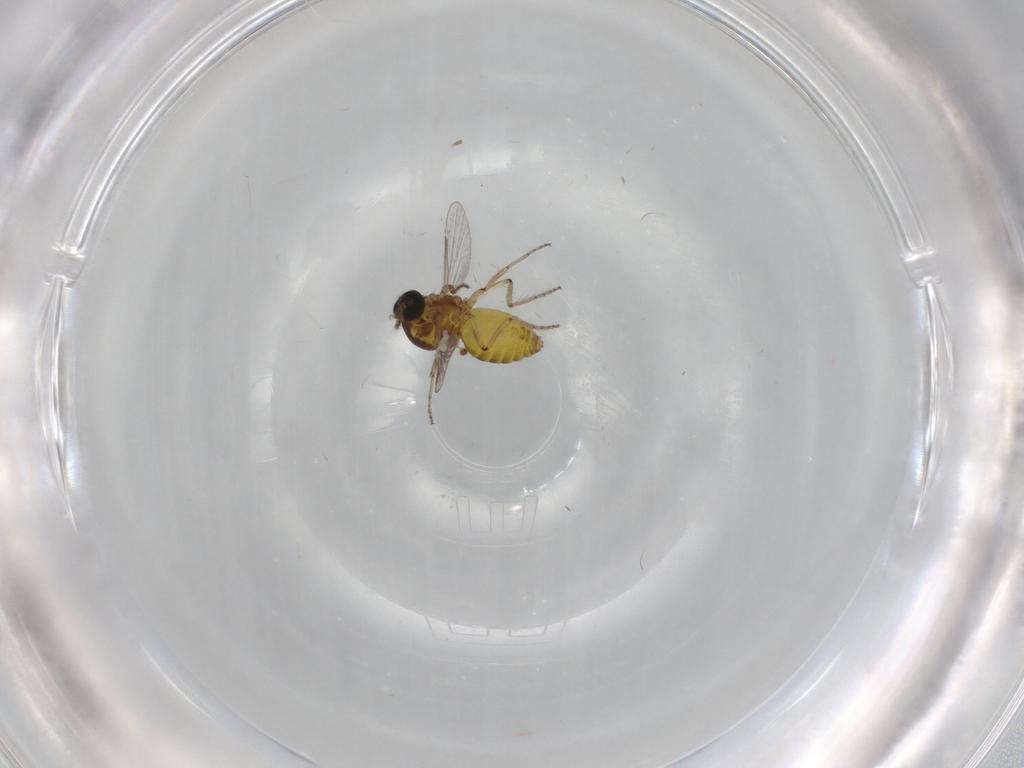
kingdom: Animalia
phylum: Arthropoda
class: Insecta
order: Diptera
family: Ceratopogonidae
